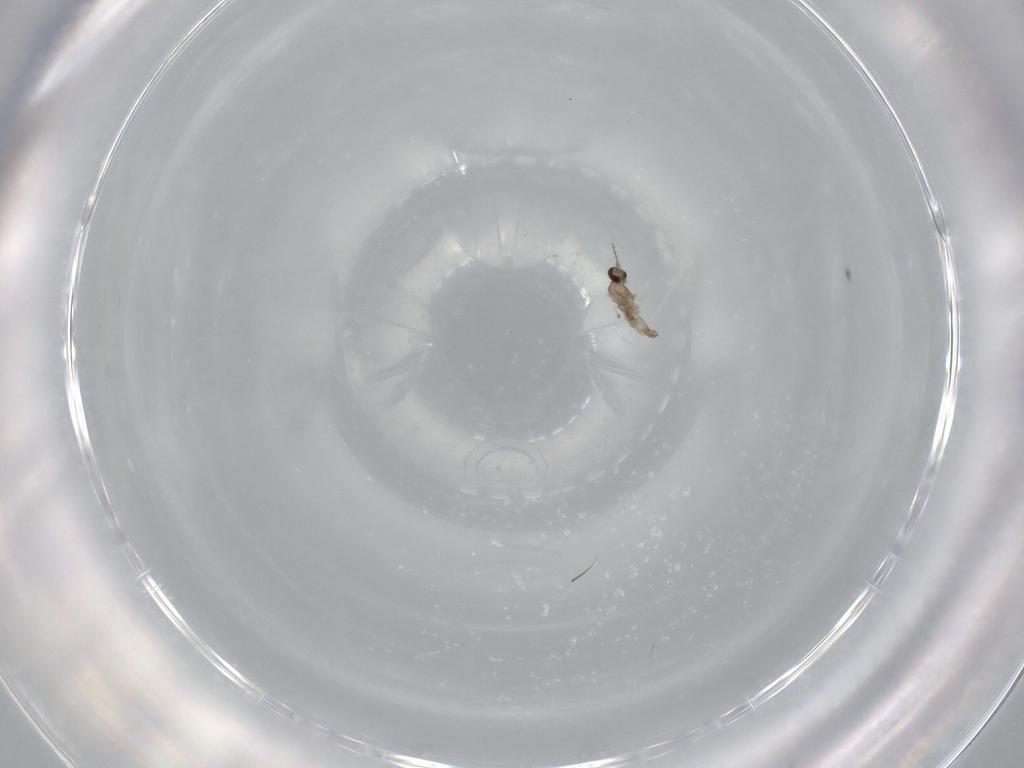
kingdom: Animalia
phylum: Arthropoda
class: Insecta
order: Diptera
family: Cecidomyiidae
